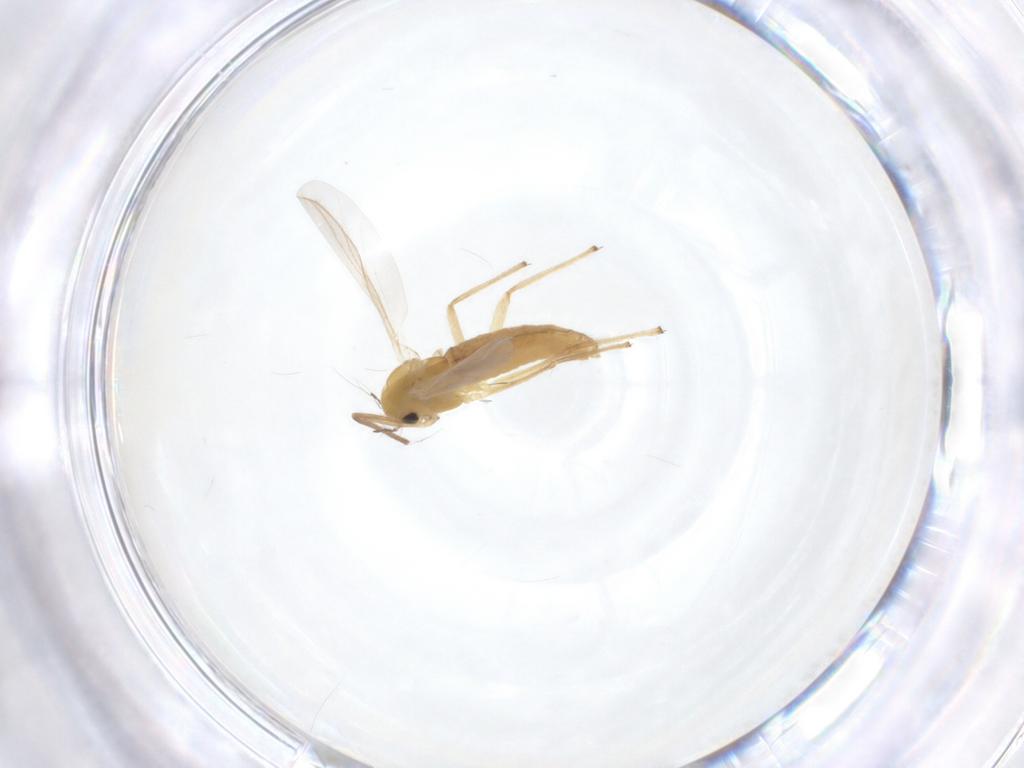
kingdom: Animalia
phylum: Arthropoda
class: Insecta
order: Diptera
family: Chironomidae
